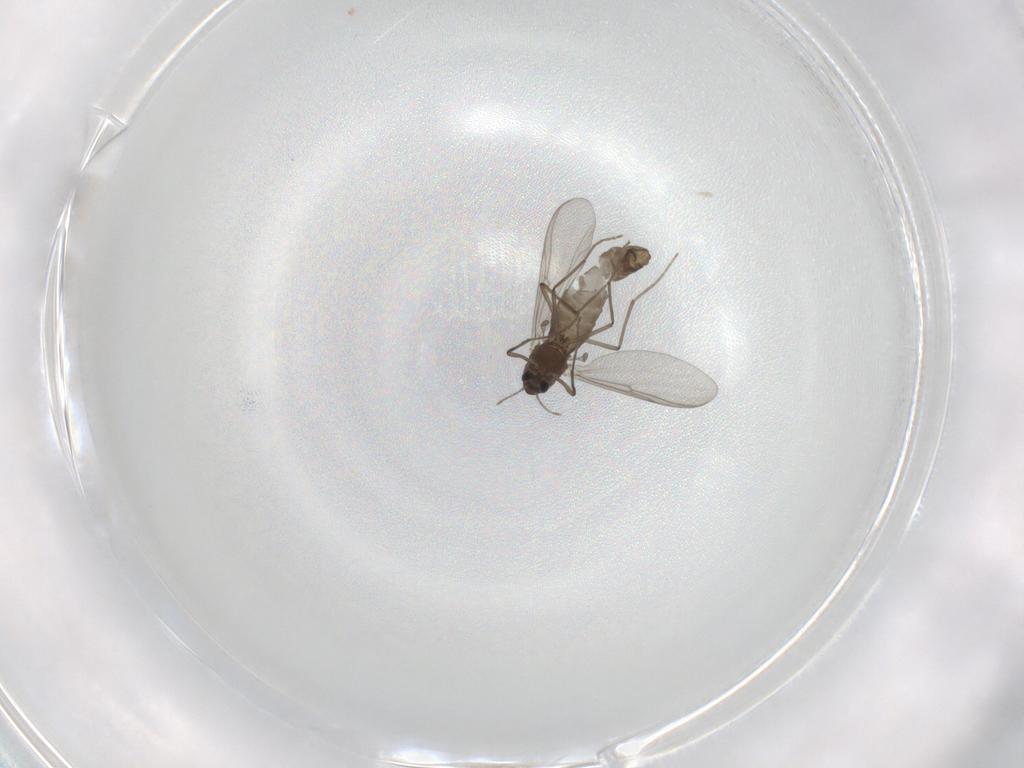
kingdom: Animalia
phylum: Arthropoda
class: Insecta
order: Diptera
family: Chironomidae
